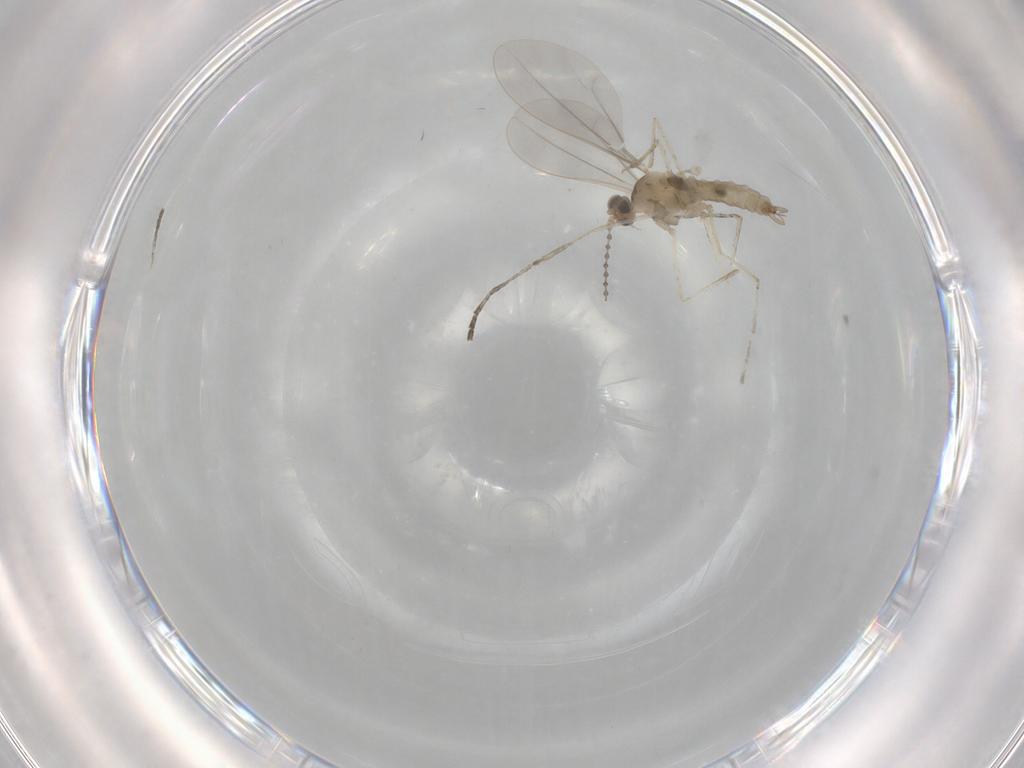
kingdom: Animalia
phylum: Arthropoda
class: Insecta
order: Diptera
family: Cecidomyiidae
